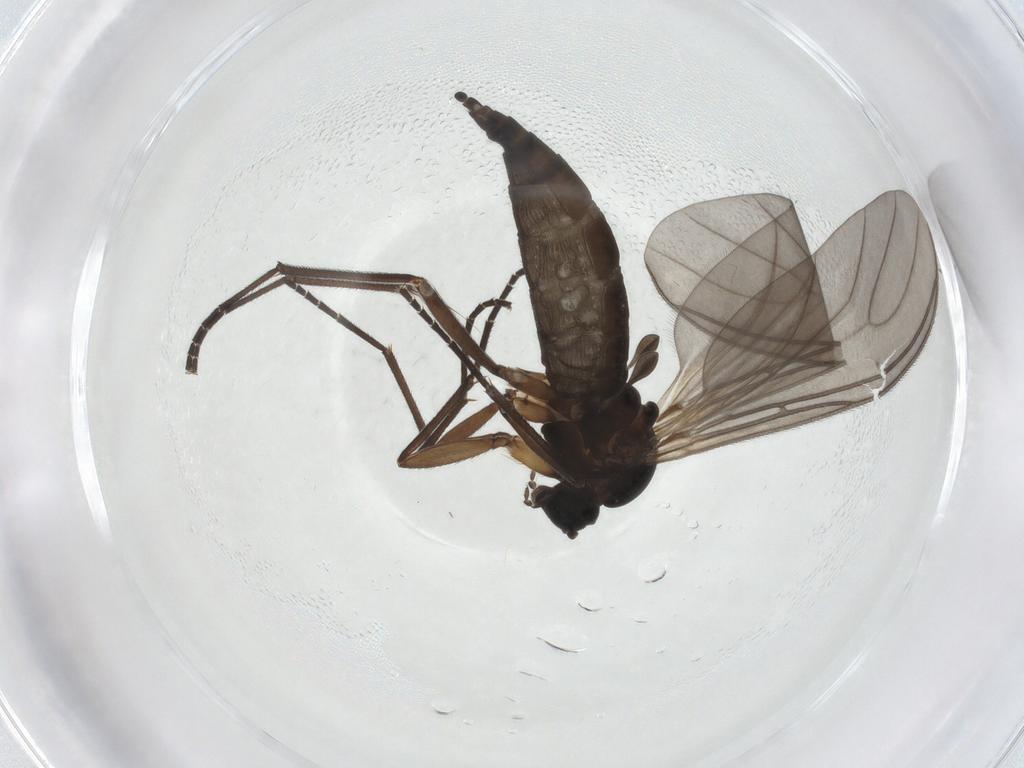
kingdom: Animalia
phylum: Arthropoda
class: Insecta
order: Diptera
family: Sciaridae
